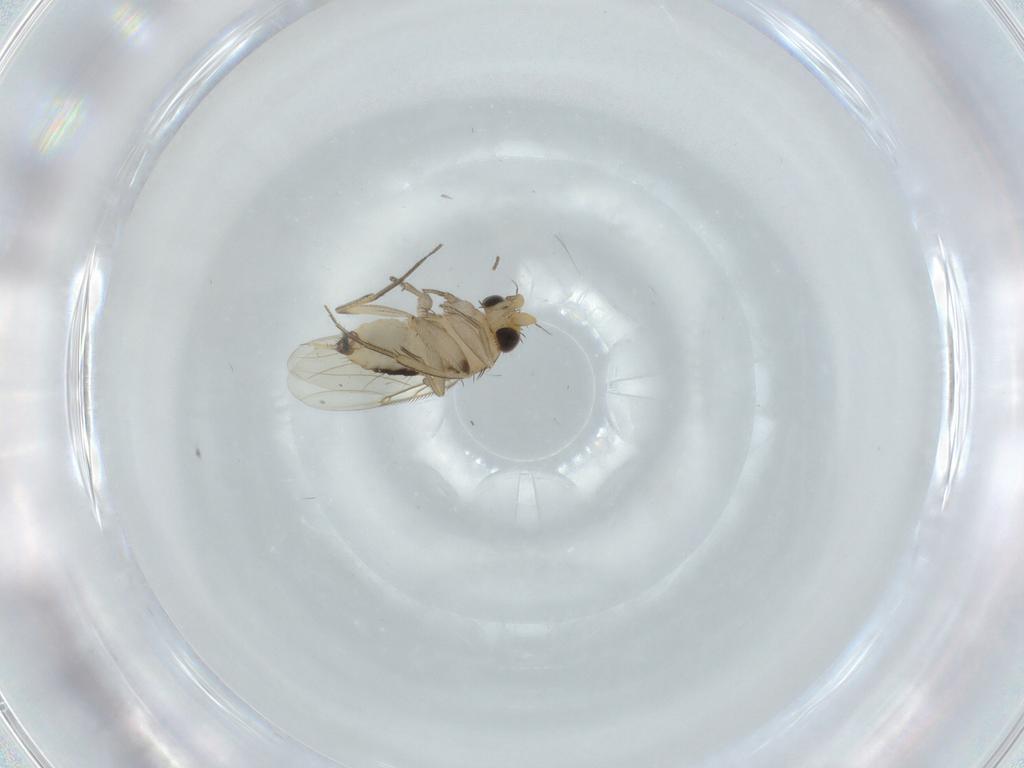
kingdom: Animalia
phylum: Arthropoda
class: Insecta
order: Diptera
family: Phoridae
